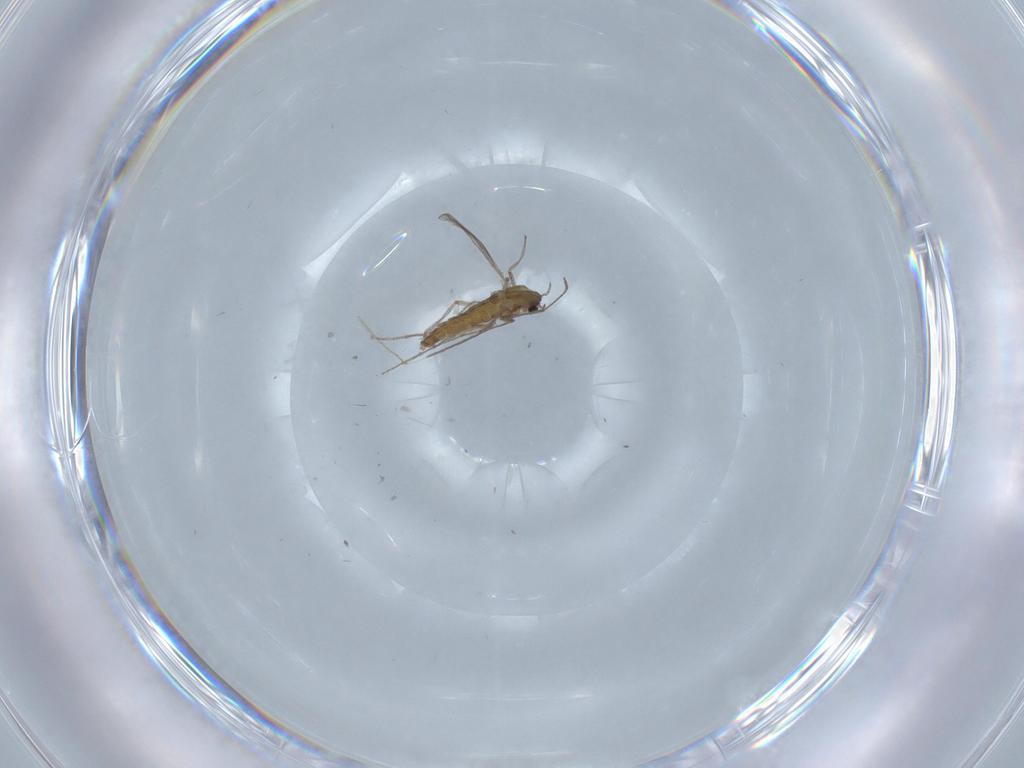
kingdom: Animalia
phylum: Arthropoda
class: Insecta
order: Diptera
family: Chironomidae
